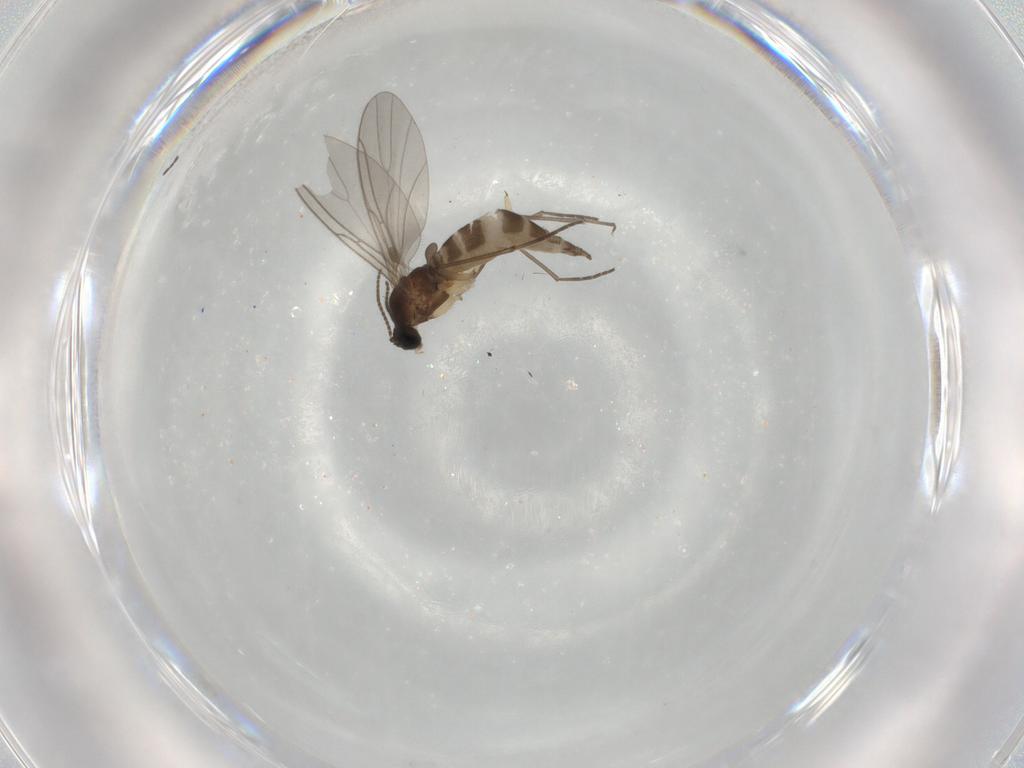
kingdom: Animalia
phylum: Arthropoda
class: Insecta
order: Diptera
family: Sciaridae
